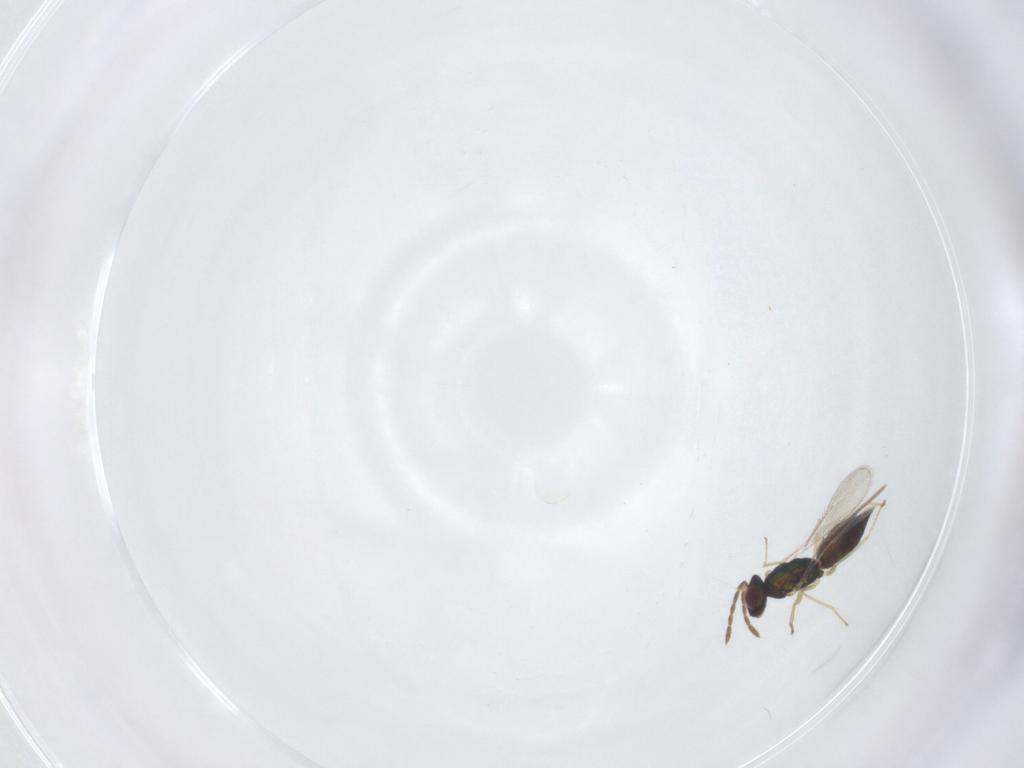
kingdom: Animalia
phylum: Arthropoda
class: Insecta
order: Hymenoptera
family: Eulophidae
